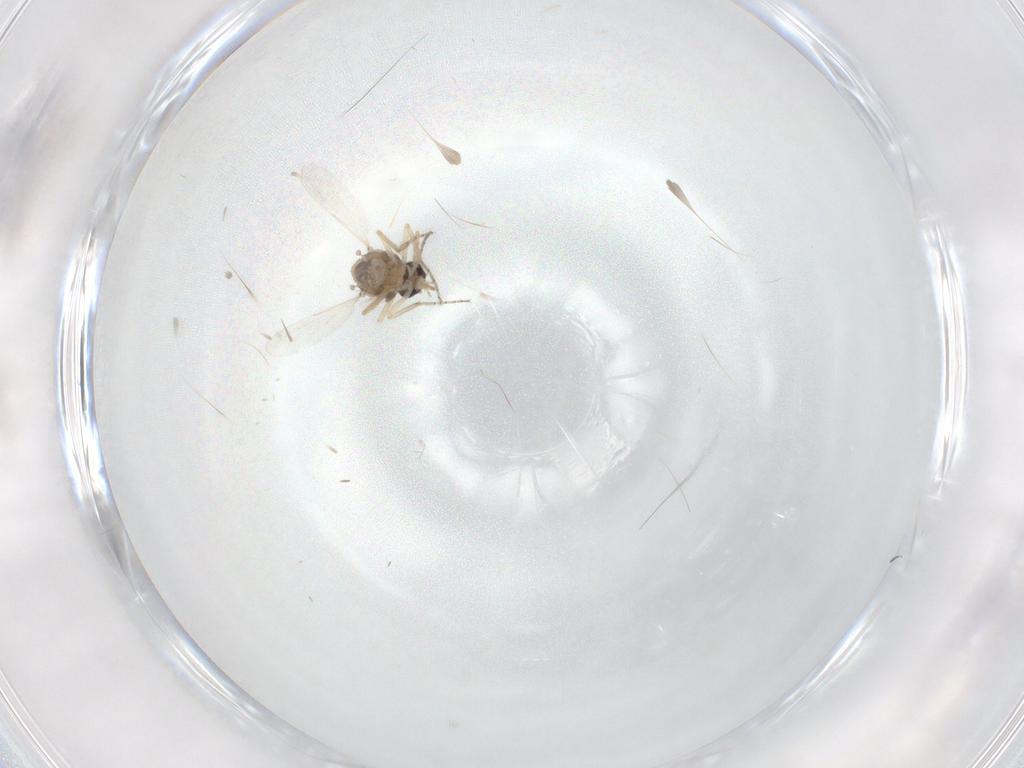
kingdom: Animalia
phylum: Arthropoda
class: Insecta
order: Diptera
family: Ceratopogonidae
